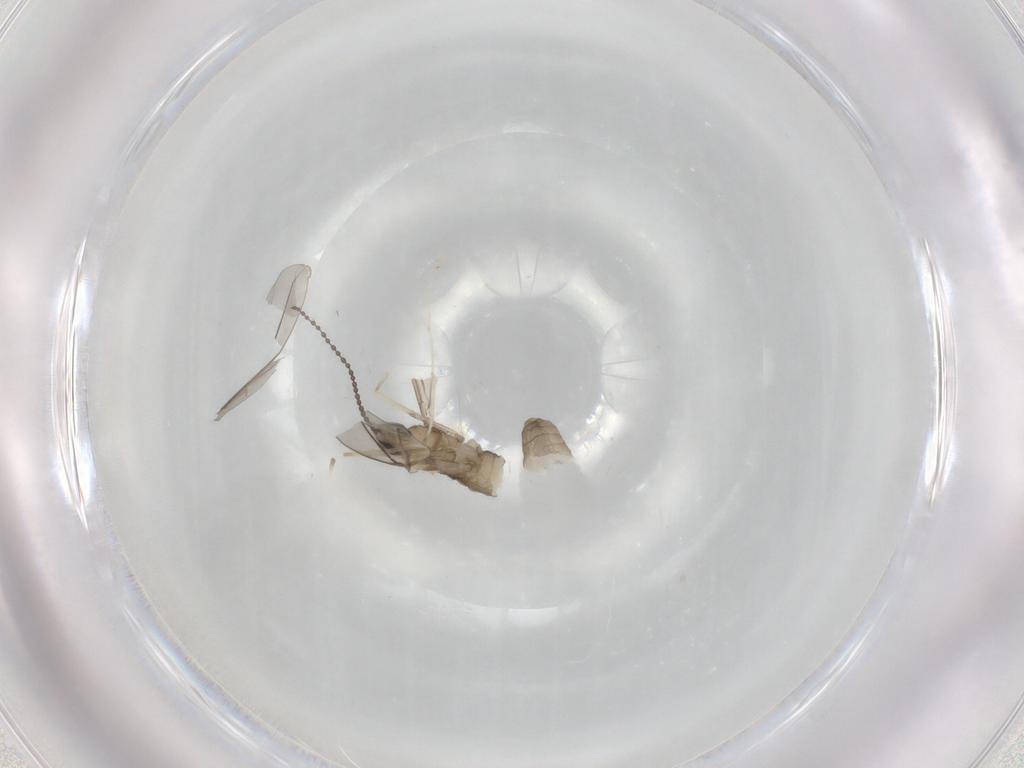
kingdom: Animalia
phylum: Arthropoda
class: Insecta
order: Diptera
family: Cecidomyiidae
